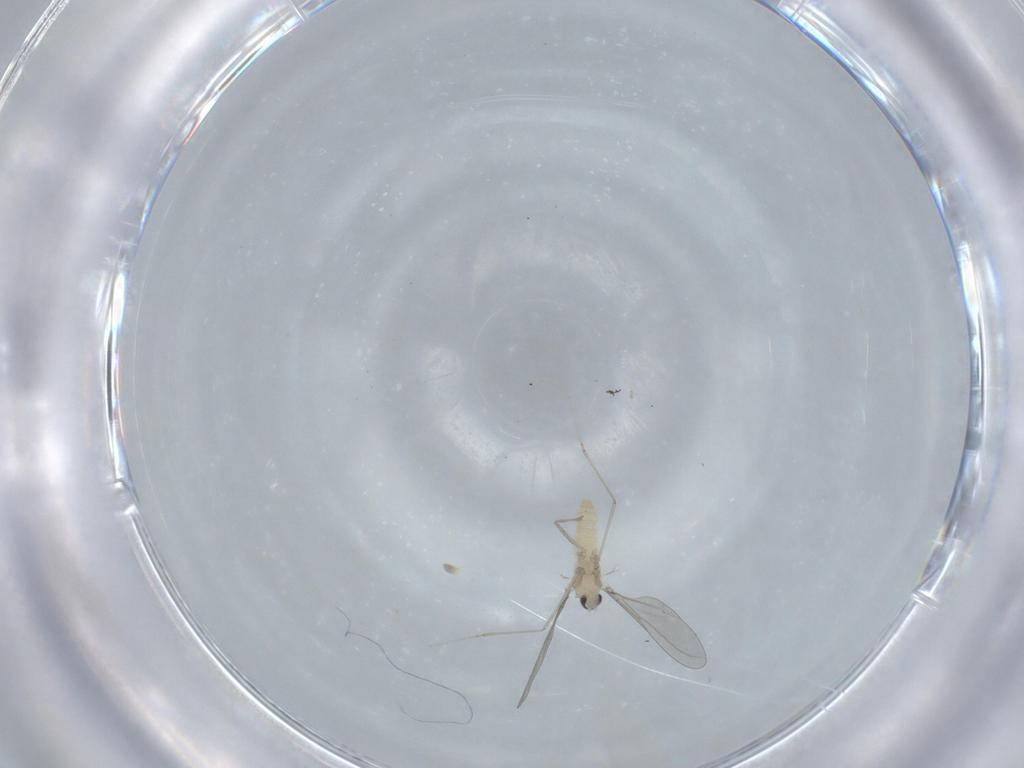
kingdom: Animalia
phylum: Arthropoda
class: Insecta
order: Diptera
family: Cecidomyiidae
